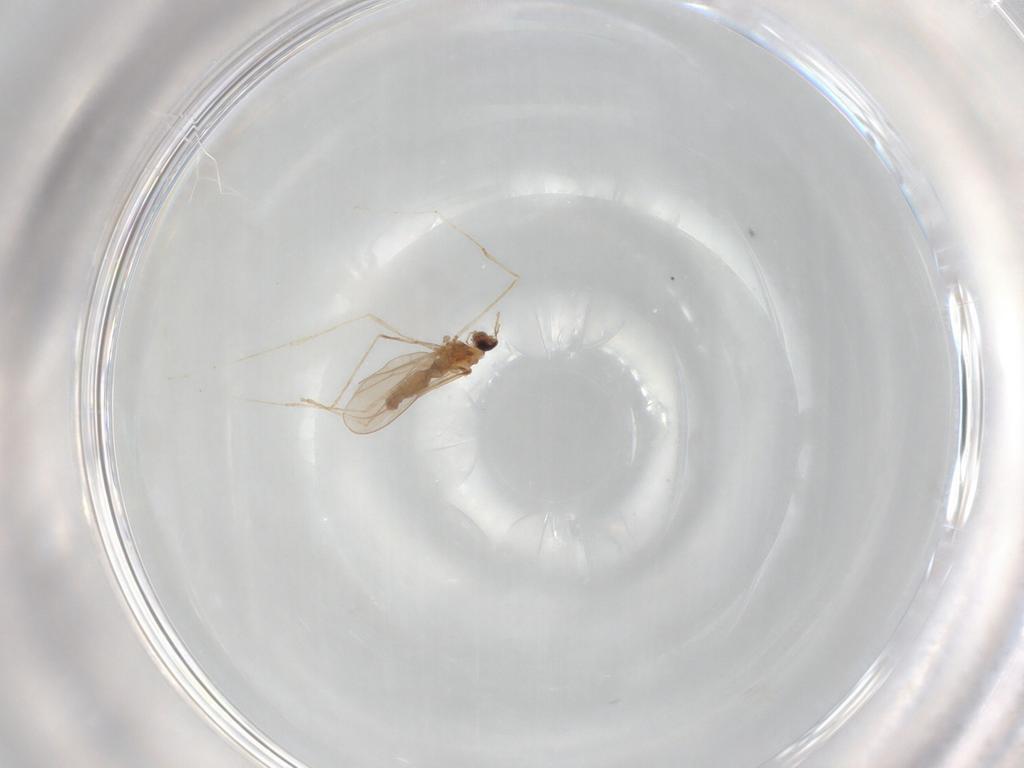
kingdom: Animalia
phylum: Arthropoda
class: Insecta
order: Diptera
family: Cecidomyiidae
